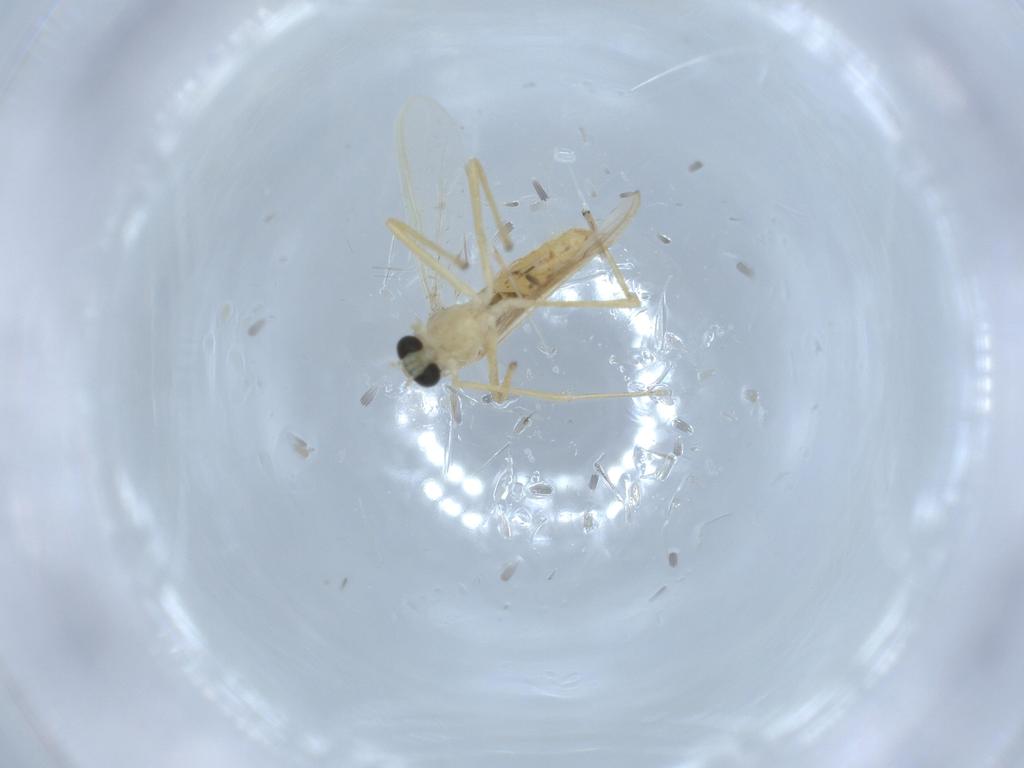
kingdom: Animalia
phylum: Arthropoda
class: Insecta
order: Diptera
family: Chironomidae
